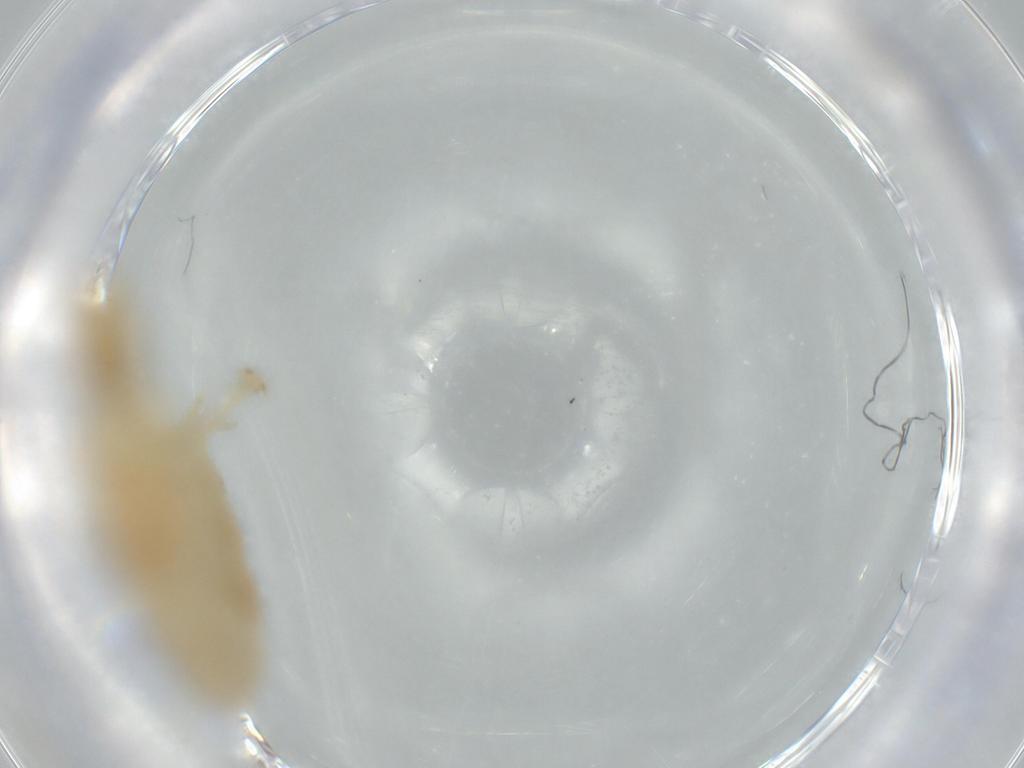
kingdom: Animalia
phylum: Arthropoda
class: Insecta
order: Diptera
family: Chironomidae
